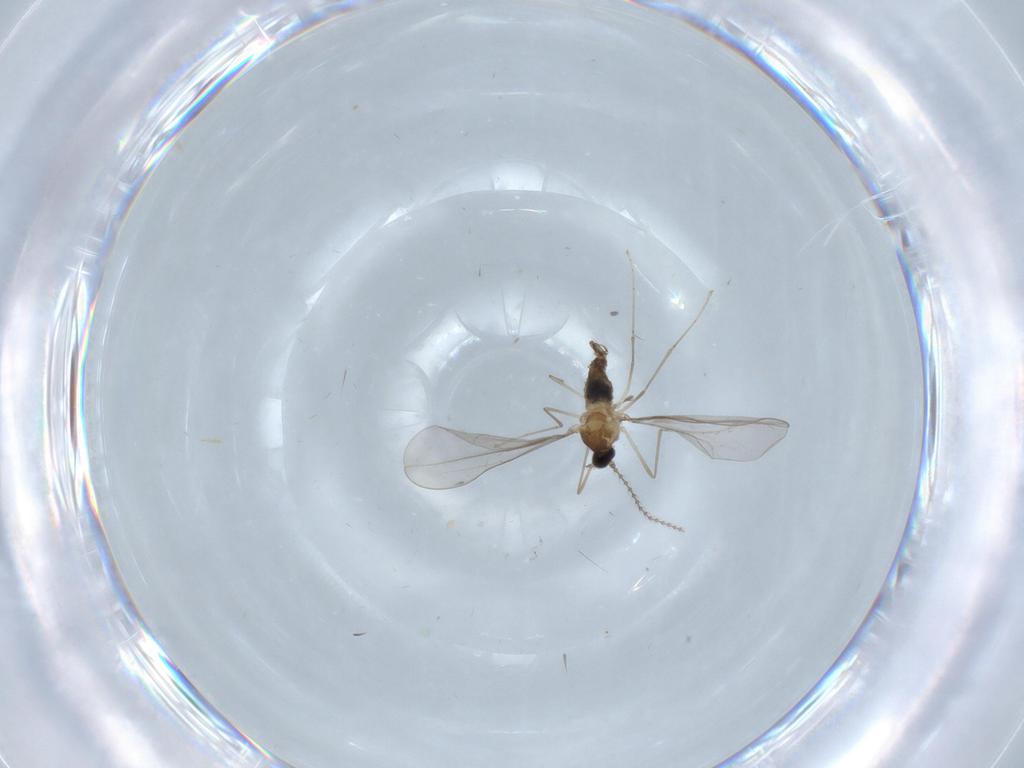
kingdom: Animalia
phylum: Arthropoda
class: Insecta
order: Diptera
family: Cecidomyiidae
